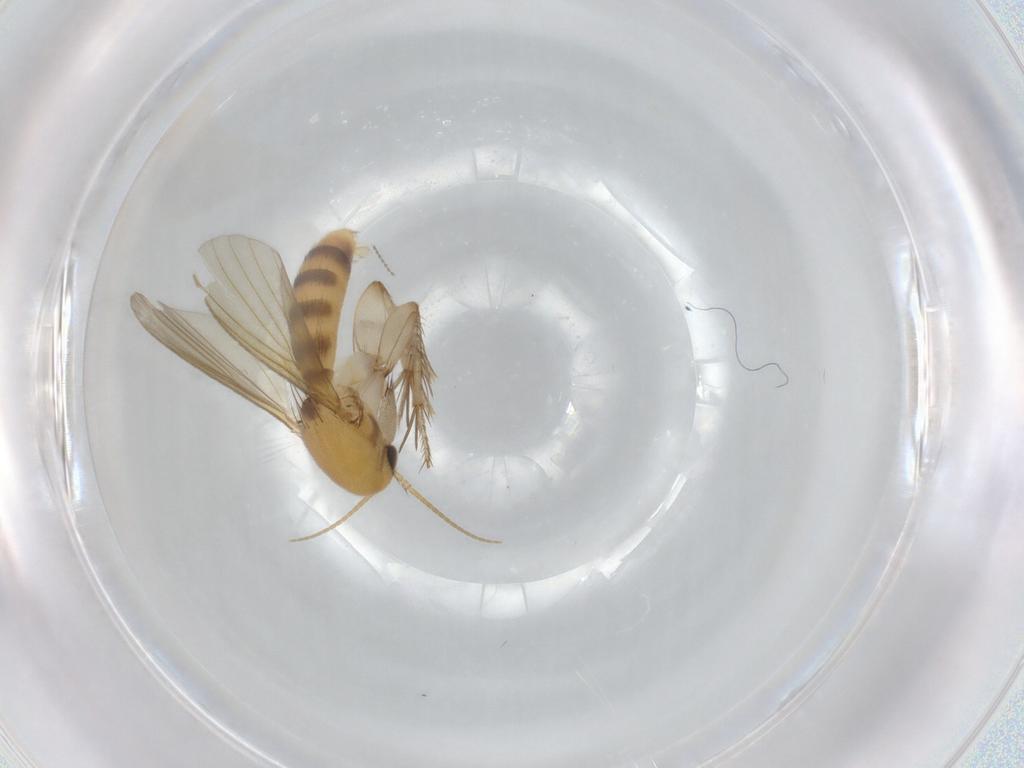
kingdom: Animalia
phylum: Arthropoda
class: Insecta
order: Diptera
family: Mycetophilidae
